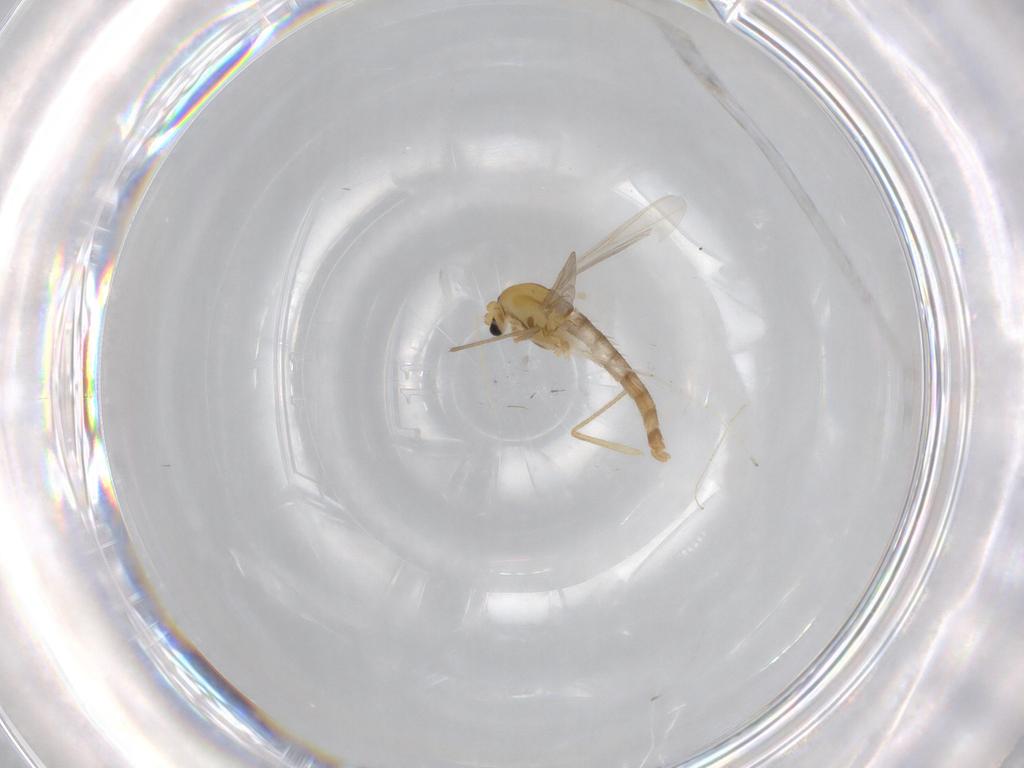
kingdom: Animalia
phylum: Arthropoda
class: Insecta
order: Diptera
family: Cecidomyiidae
